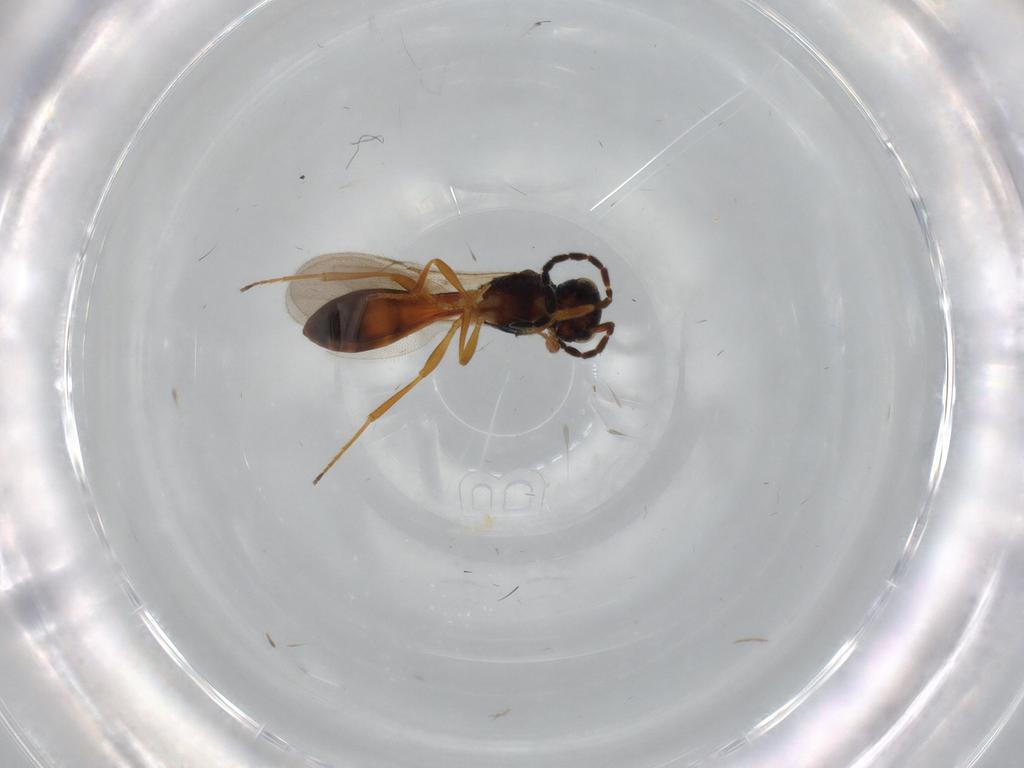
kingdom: Animalia
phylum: Arthropoda
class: Insecta
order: Hymenoptera
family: Scelionidae
